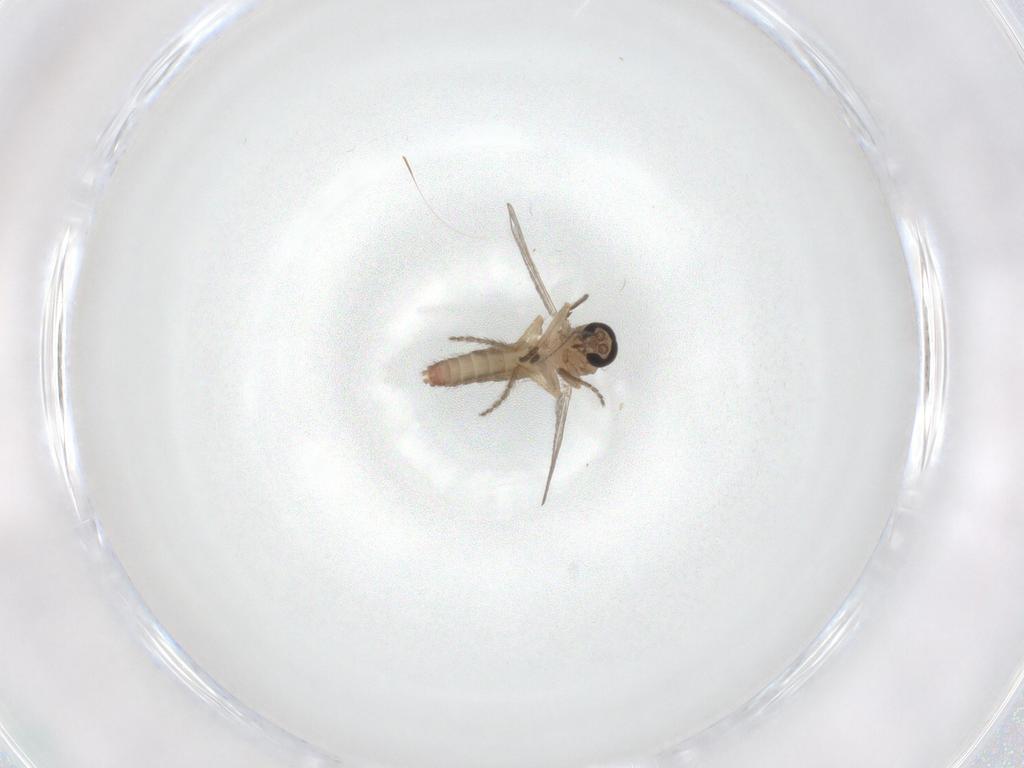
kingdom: Animalia
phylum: Arthropoda
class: Insecta
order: Diptera
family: Ceratopogonidae
